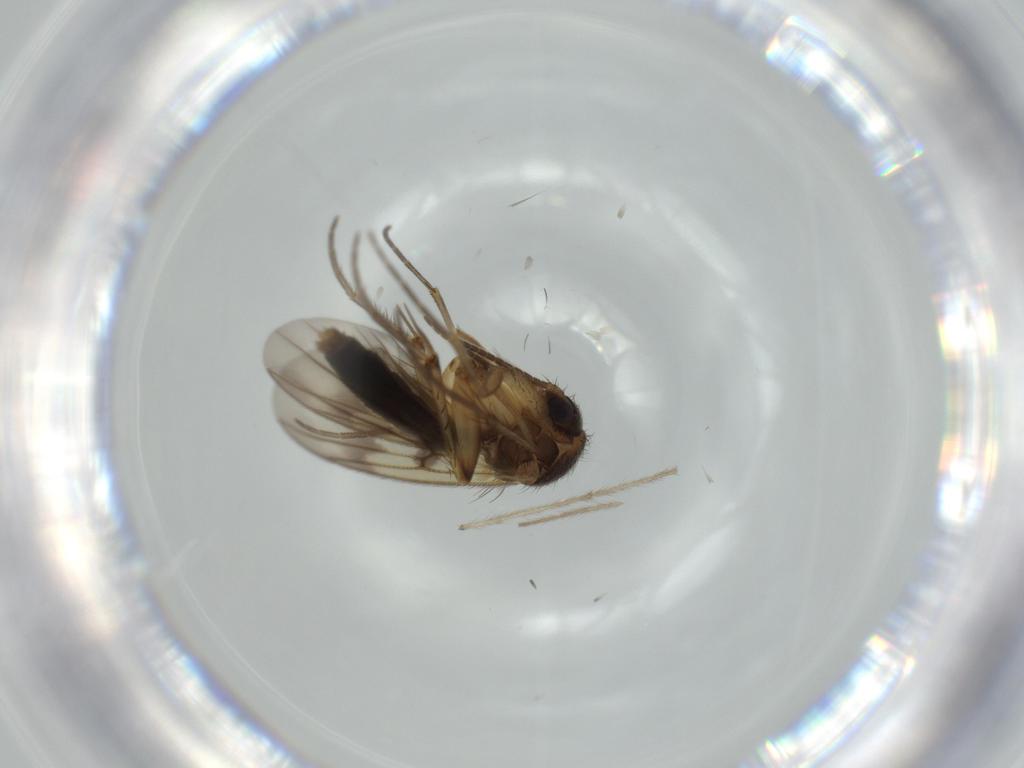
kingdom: Animalia
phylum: Arthropoda
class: Insecta
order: Diptera
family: Mycetophilidae
